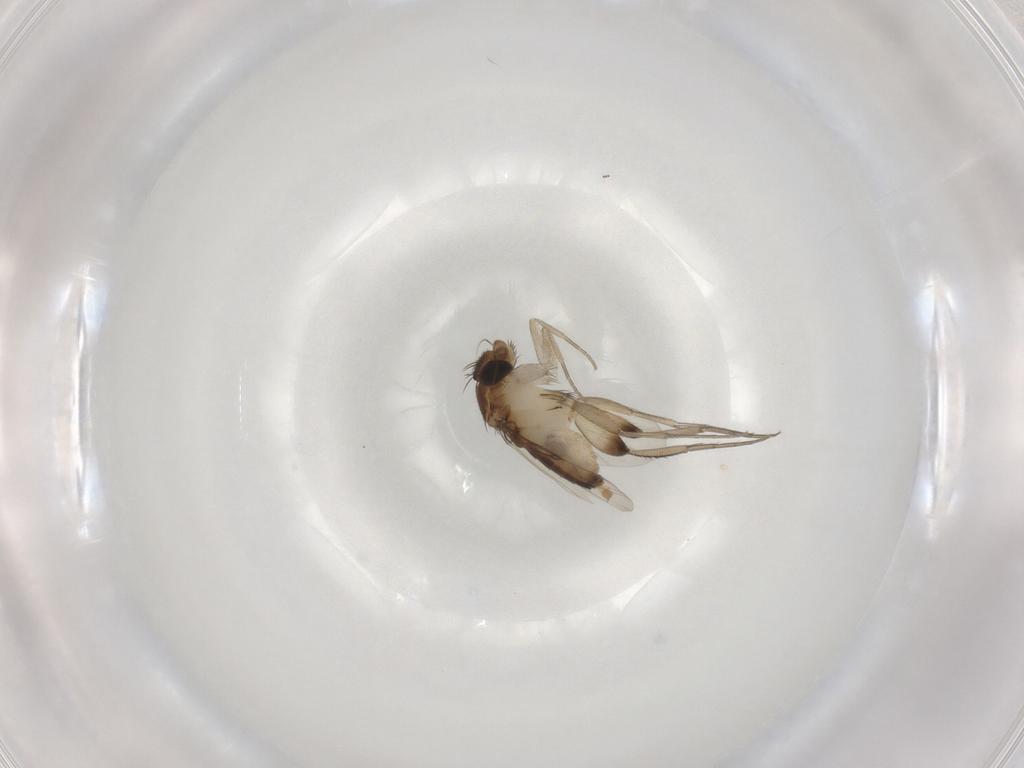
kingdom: Animalia
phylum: Arthropoda
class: Insecta
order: Diptera
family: Phoridae
